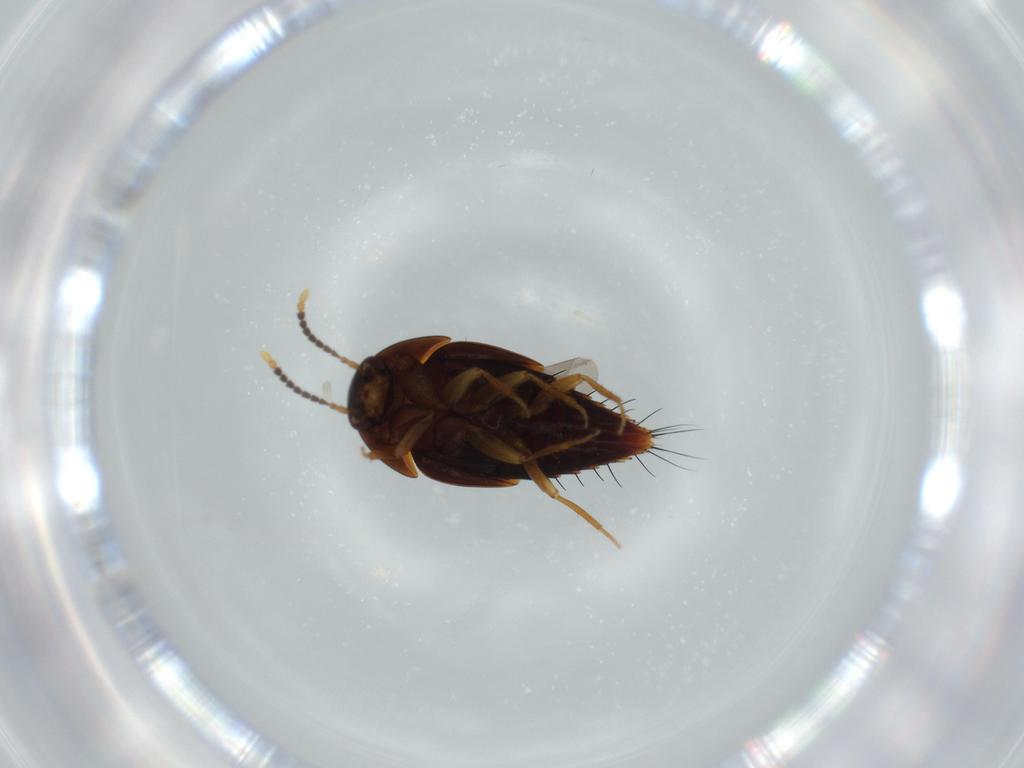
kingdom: Animalia
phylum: Arthropoda
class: Insecta
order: Coleoptera
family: Staphylinidae
